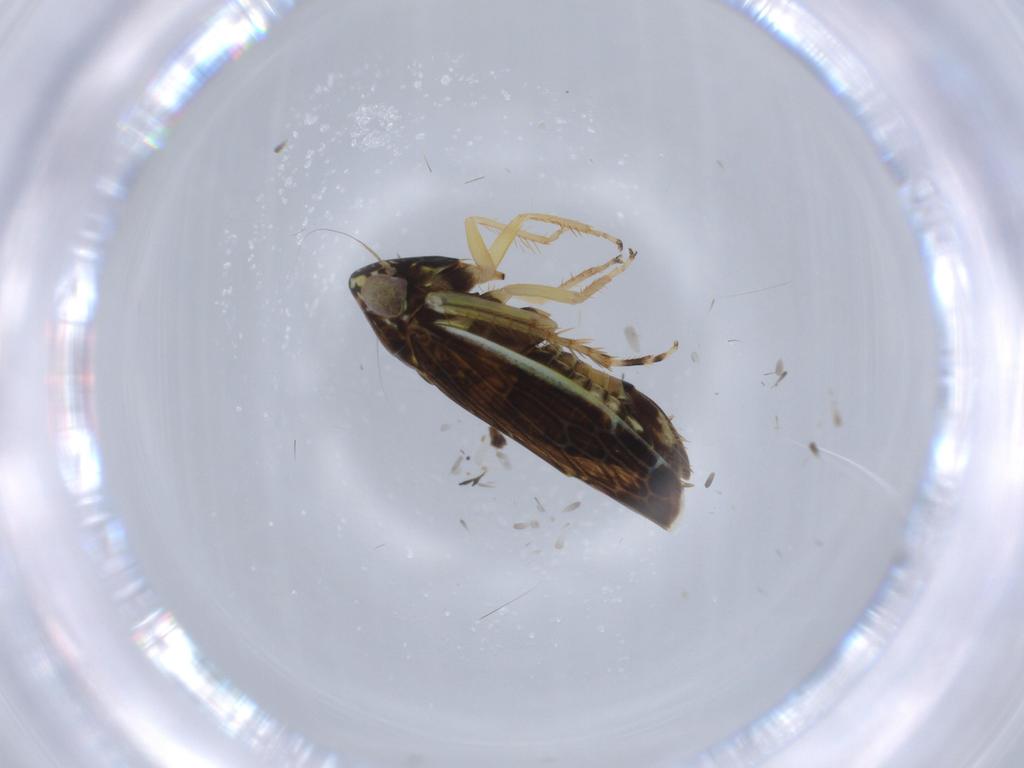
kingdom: Animalia
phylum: Arthropoda
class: Insecta
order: Hemiptera
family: Cicadellidae
